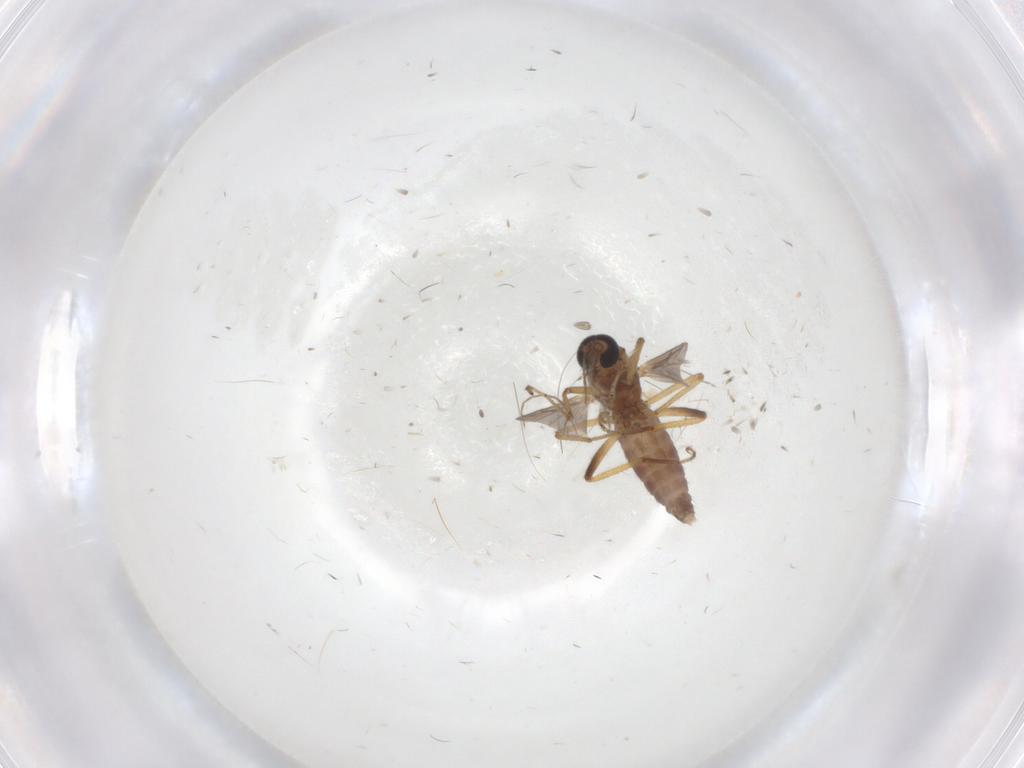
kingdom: Animalia
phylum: Arthropoda
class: Insecta
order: Diptera
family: Ceratopogonidae
